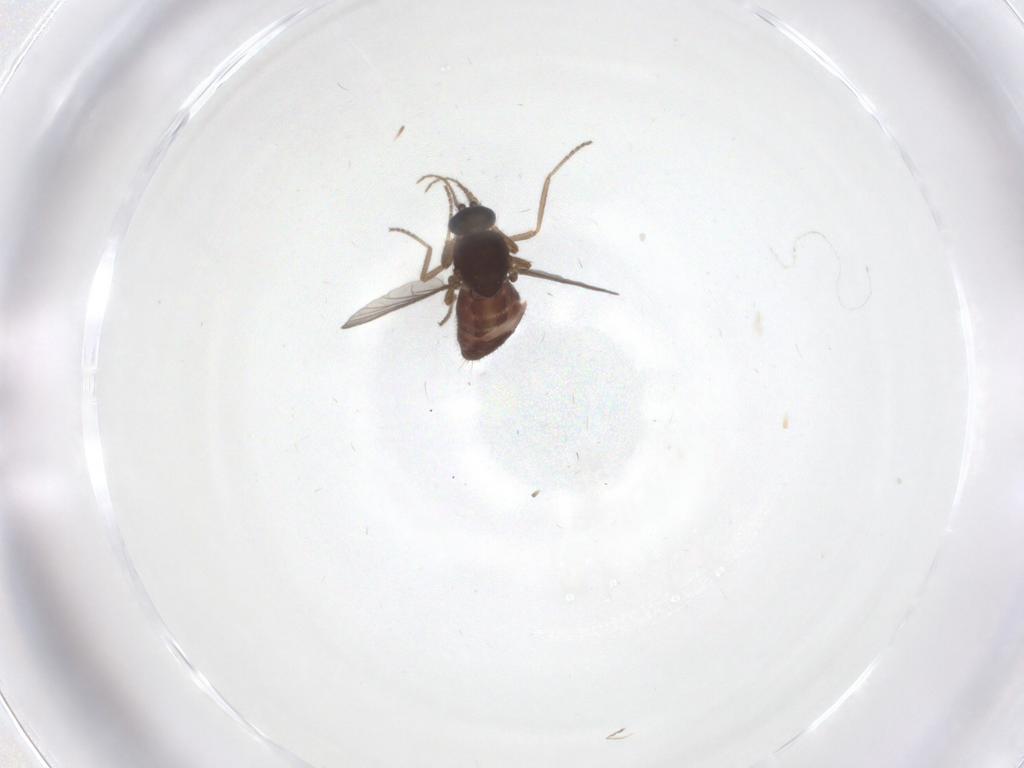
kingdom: Animalia
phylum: Arthropoda
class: Insecta
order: Diptera
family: Ceratopogonidae
